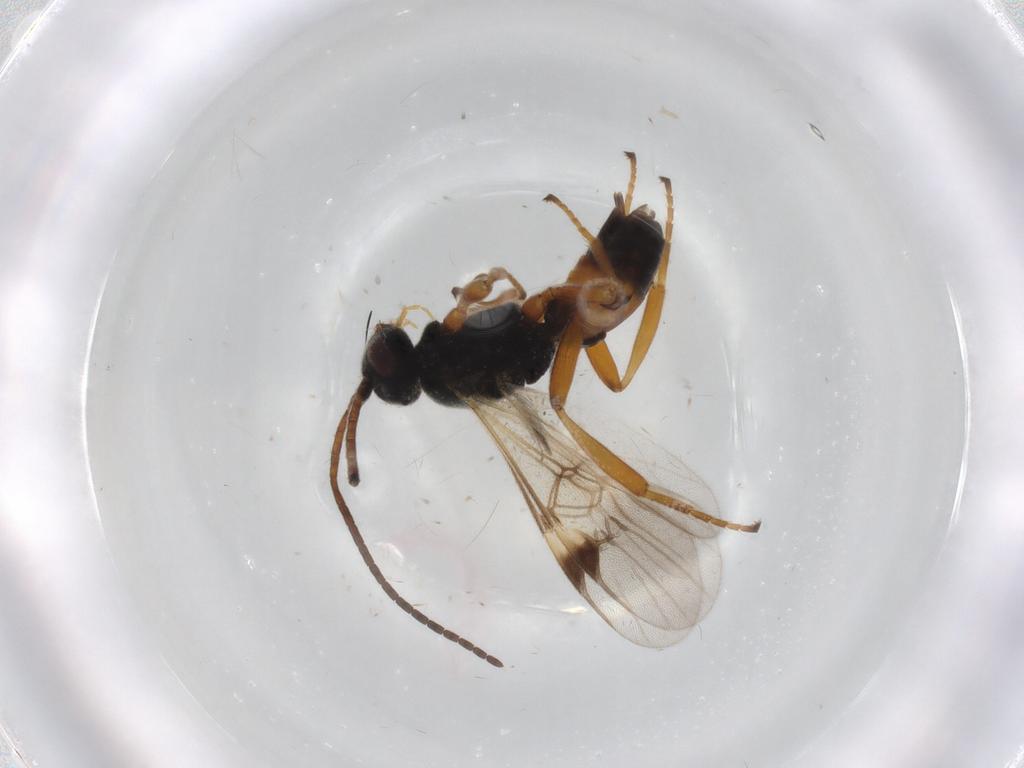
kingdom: Animalia
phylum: Arthropoda
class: Insecta
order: Hymenoptera
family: Braconidae
